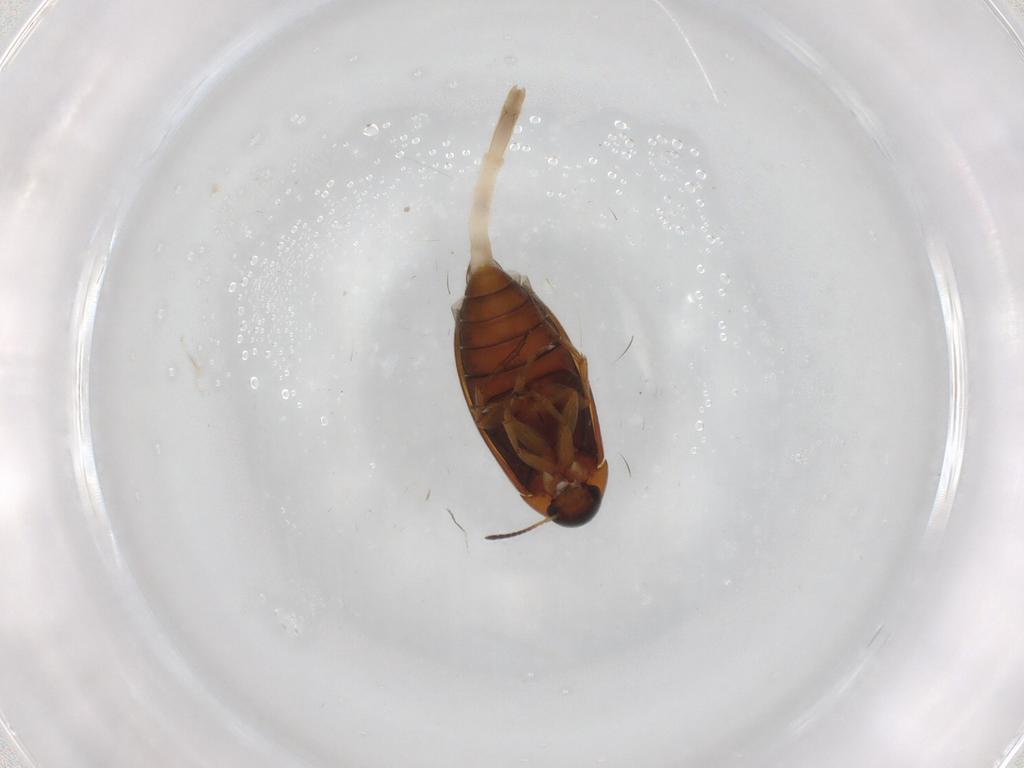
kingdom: Animalia
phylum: Arthropoda
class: Insecta
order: Coleoptera
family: Scraptiidae
